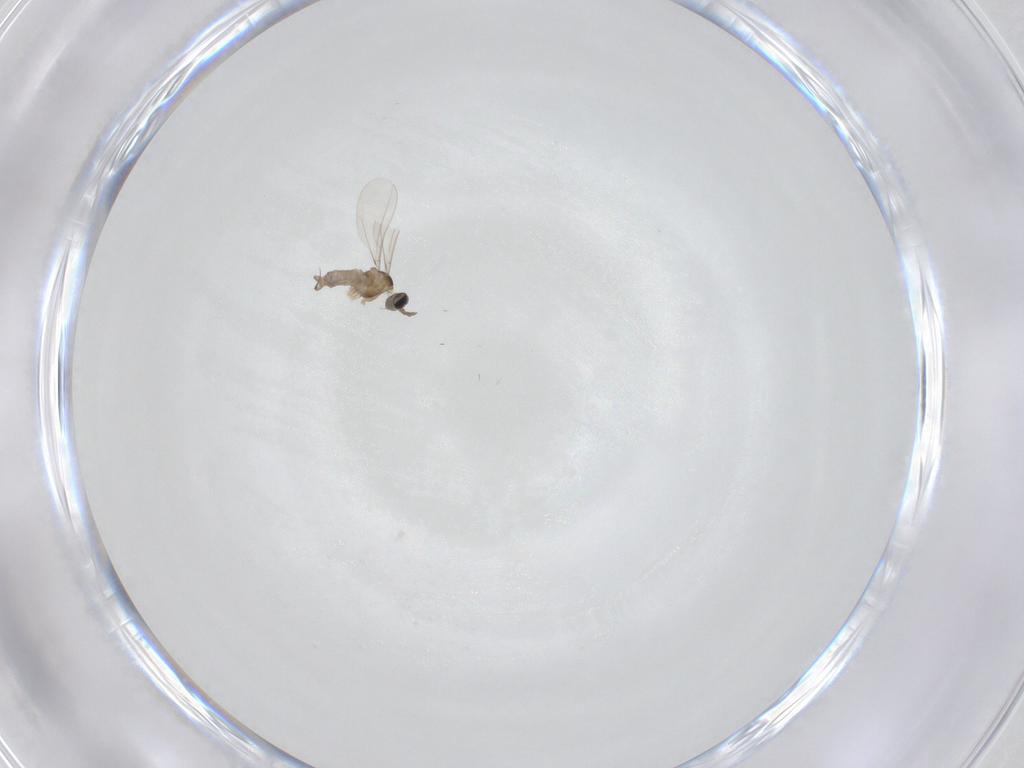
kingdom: Animalia
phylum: Arthropoda
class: Insecta
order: Diptera
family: Cecidomyiidae
